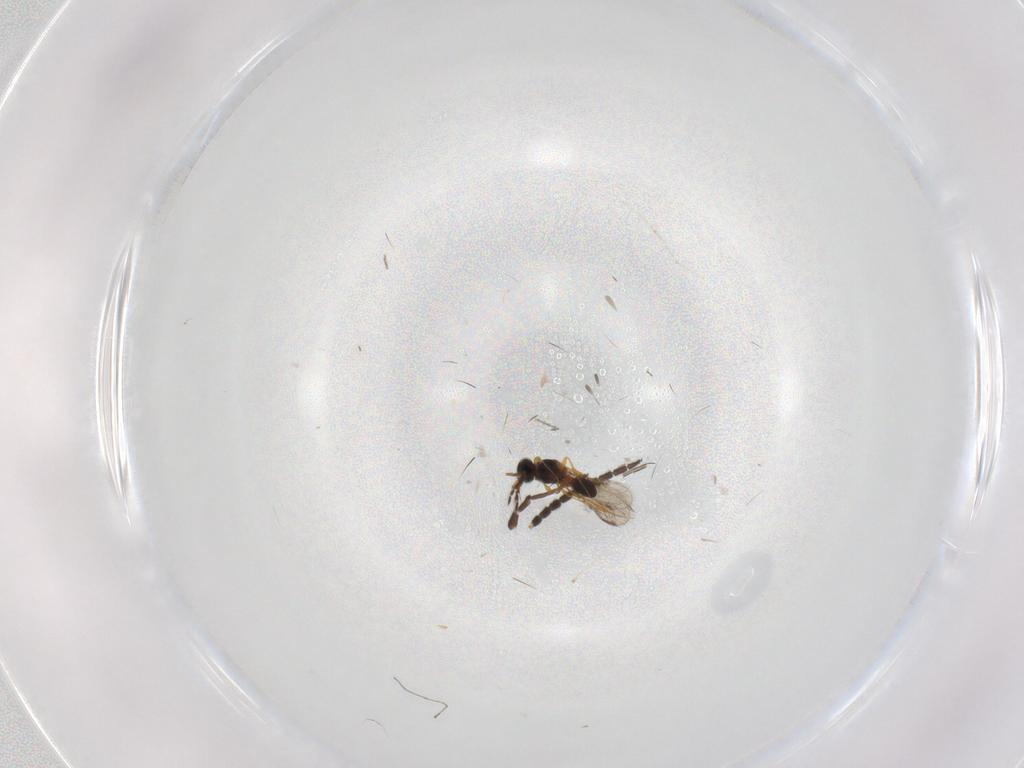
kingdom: Animalia
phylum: Arthropoda
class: Insecta
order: Hymenoptera
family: Platygastridae
